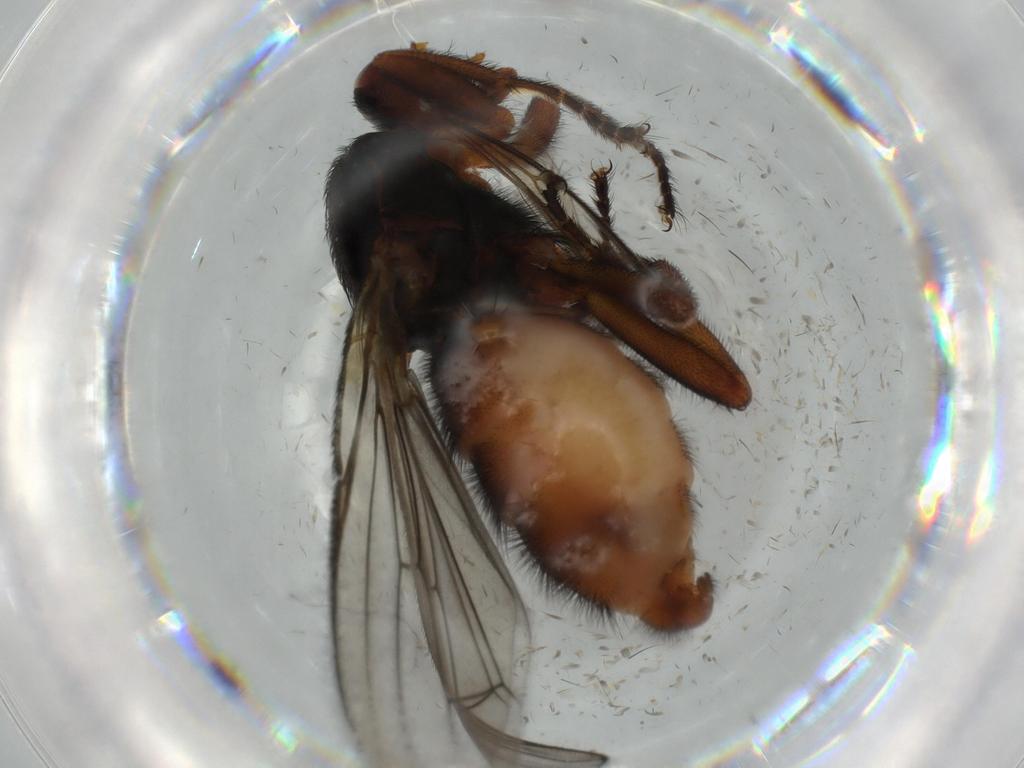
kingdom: Animalia
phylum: Arthropoda
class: Insecta
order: Diptera
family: Heleomyzidae
